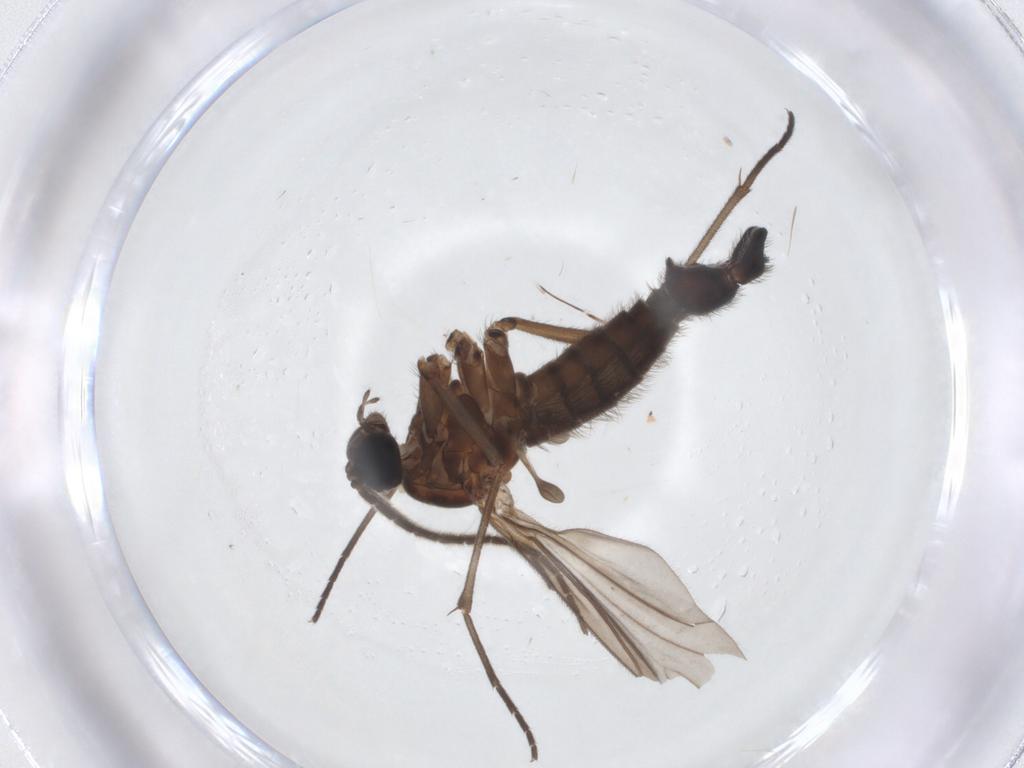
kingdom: Animalia
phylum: Arthropoda
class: Insecta
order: Diptera
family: Sciaridae
